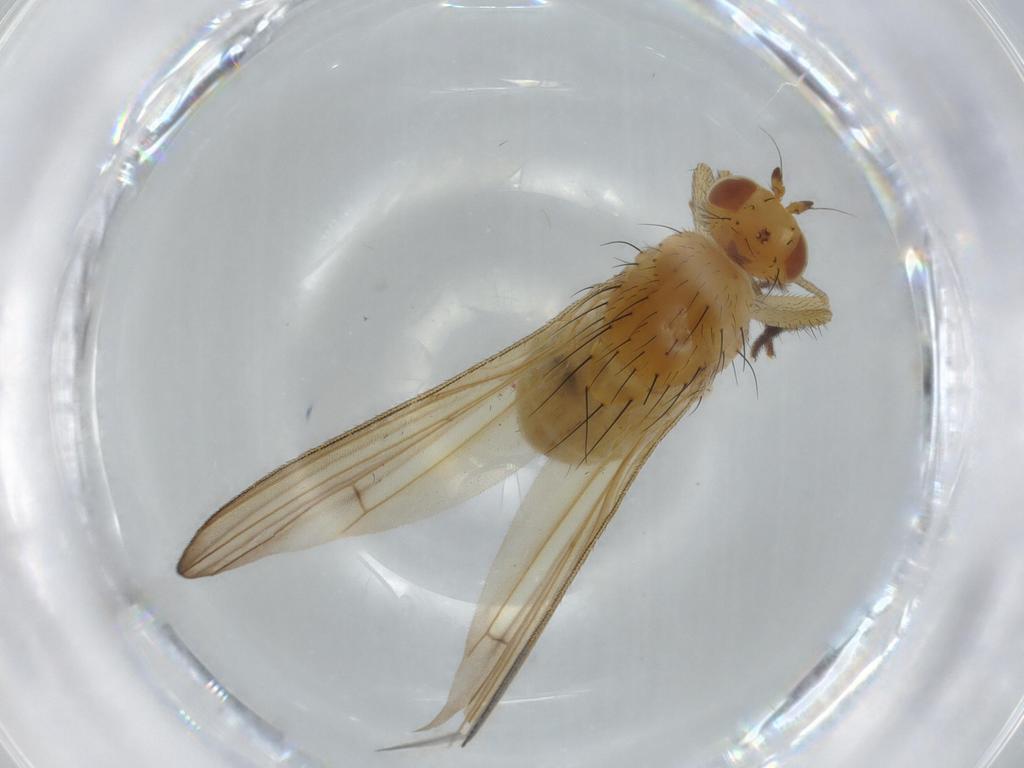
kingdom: Animalia
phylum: Arthropoda
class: Insecta
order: Diptera
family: Lauxaniidae
